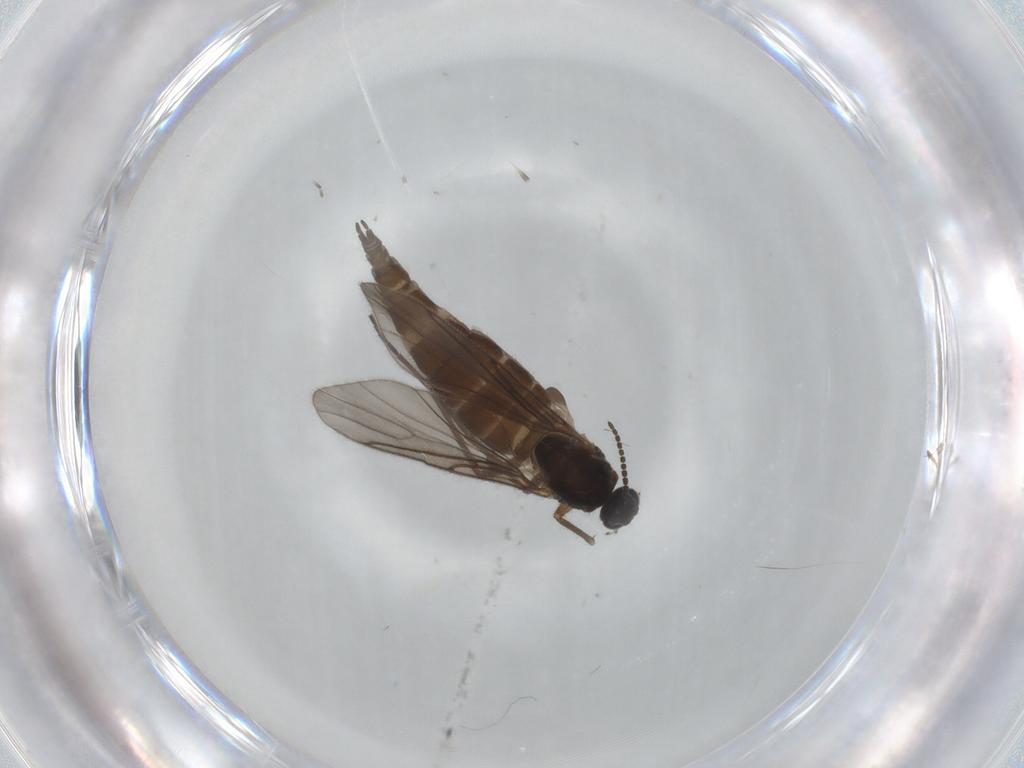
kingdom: Animalia
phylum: Arthropoda
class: Insecta
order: Diptera
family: Sciaridae
